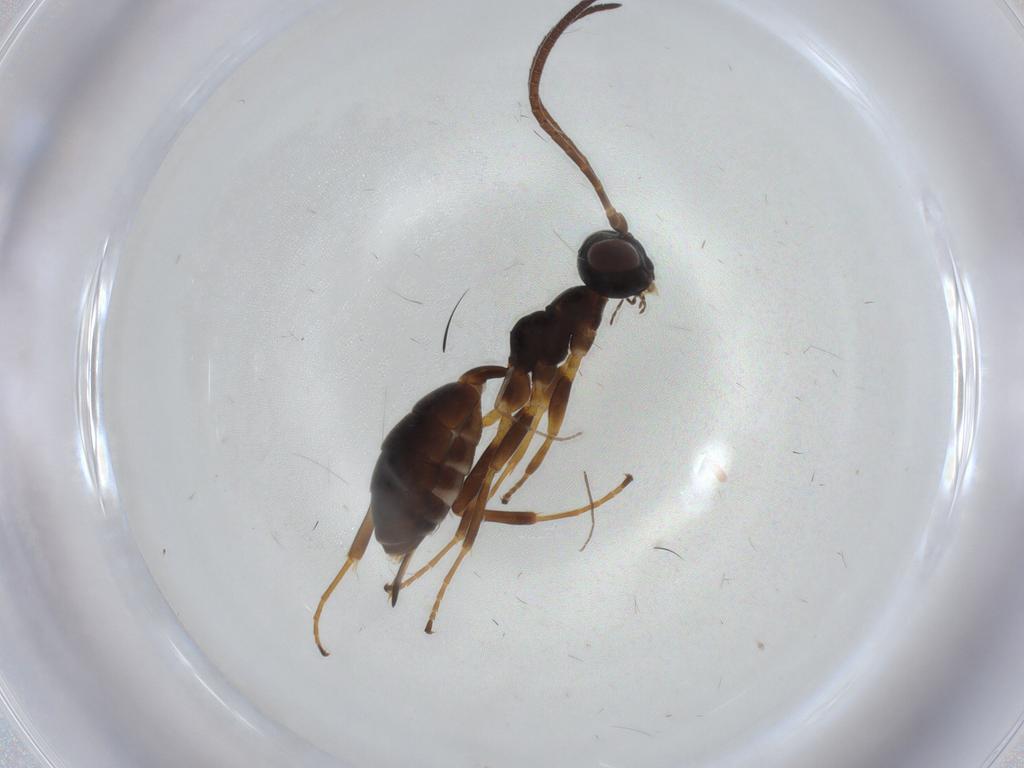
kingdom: Animalia
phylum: Arthropoda
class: Insecta
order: Hymenoptera
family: Ichneumonidae
